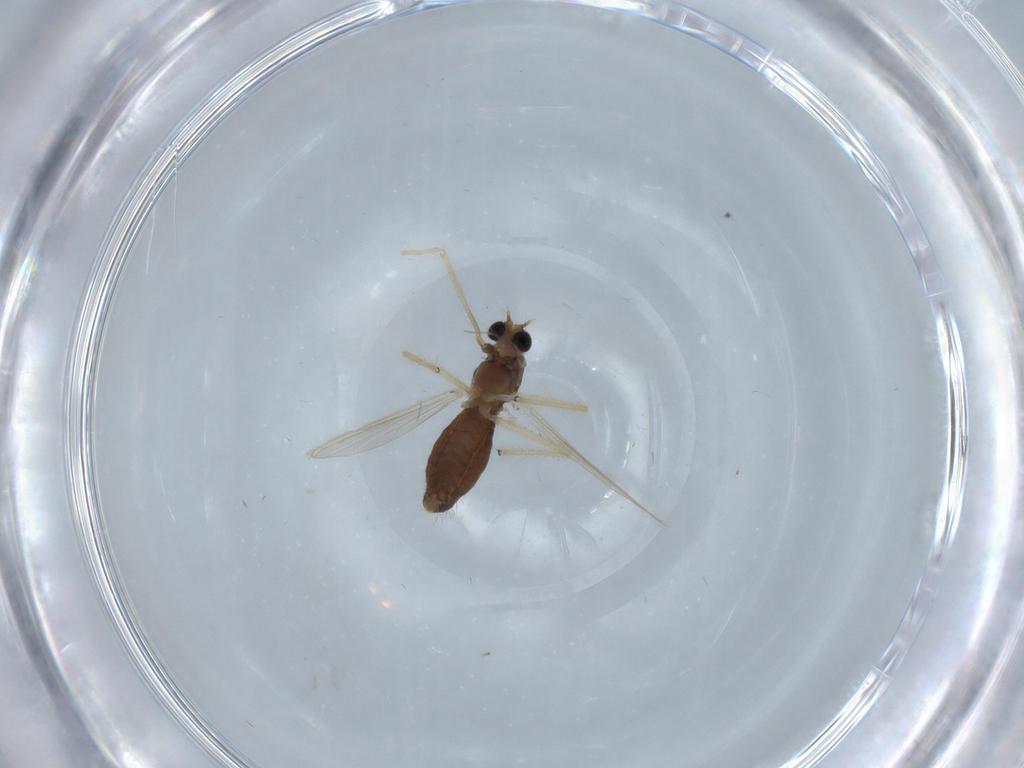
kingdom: Animalia
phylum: Arthropoda
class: Insecta
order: Diptera
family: Chironomidae
